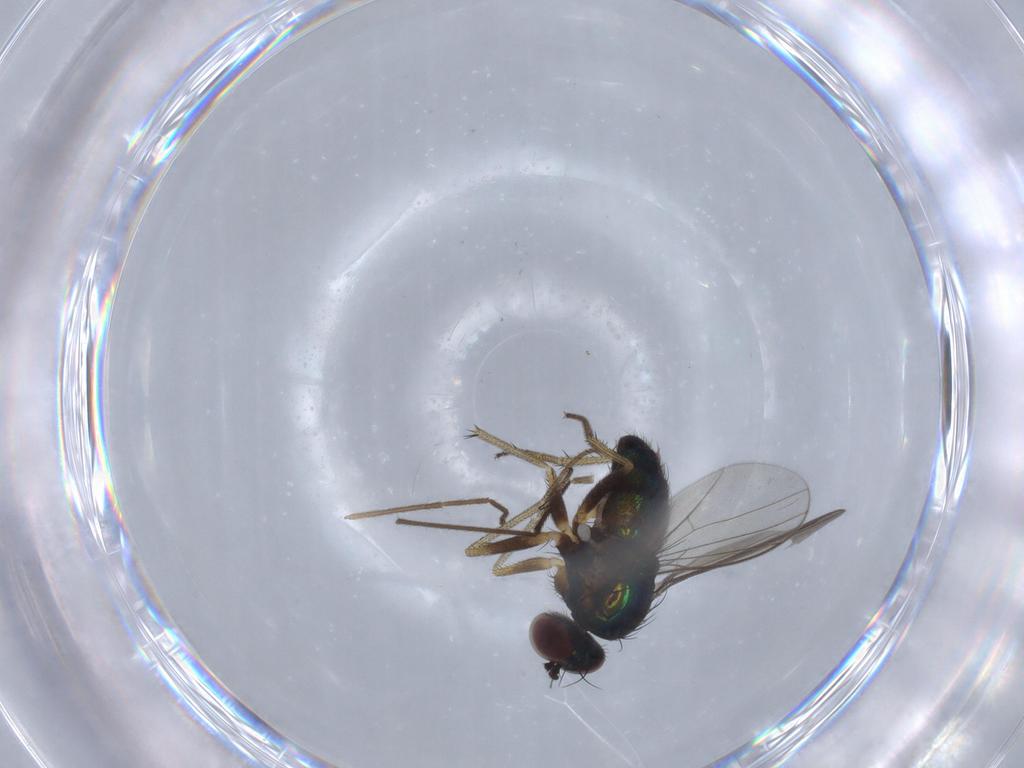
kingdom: Animalia
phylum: Arthropoda
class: Insecta
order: Diptera
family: Chironomidae
